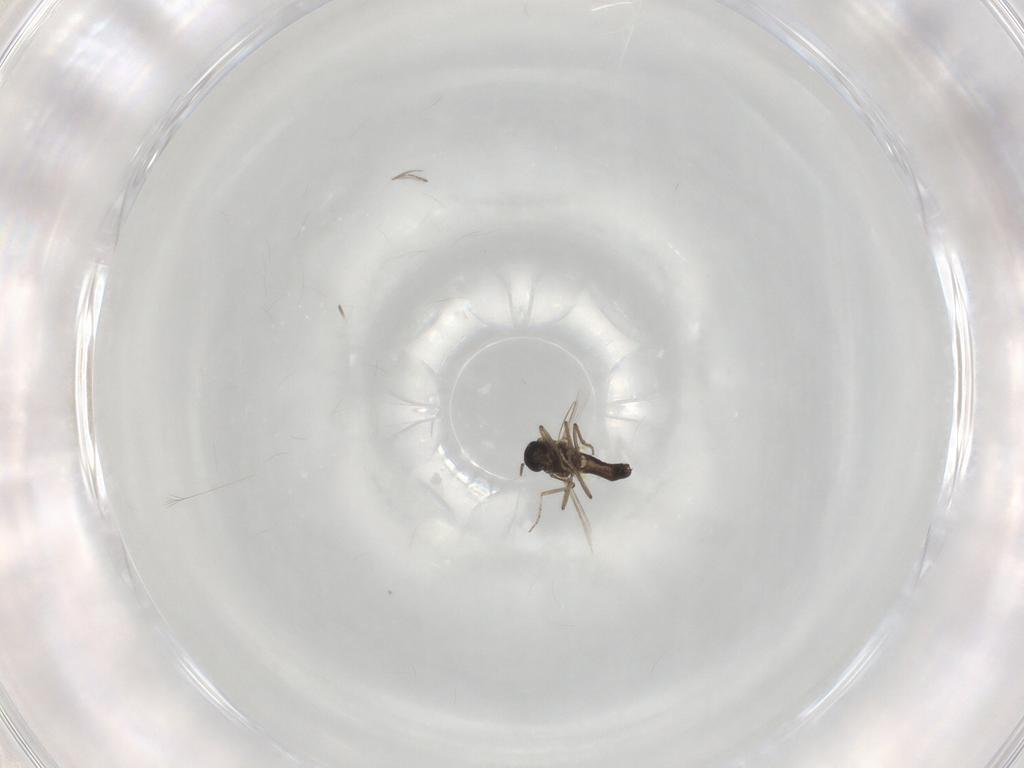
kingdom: Animalia
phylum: Arthropoda
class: Insecta
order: Diptera
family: Ceratopogonidae
